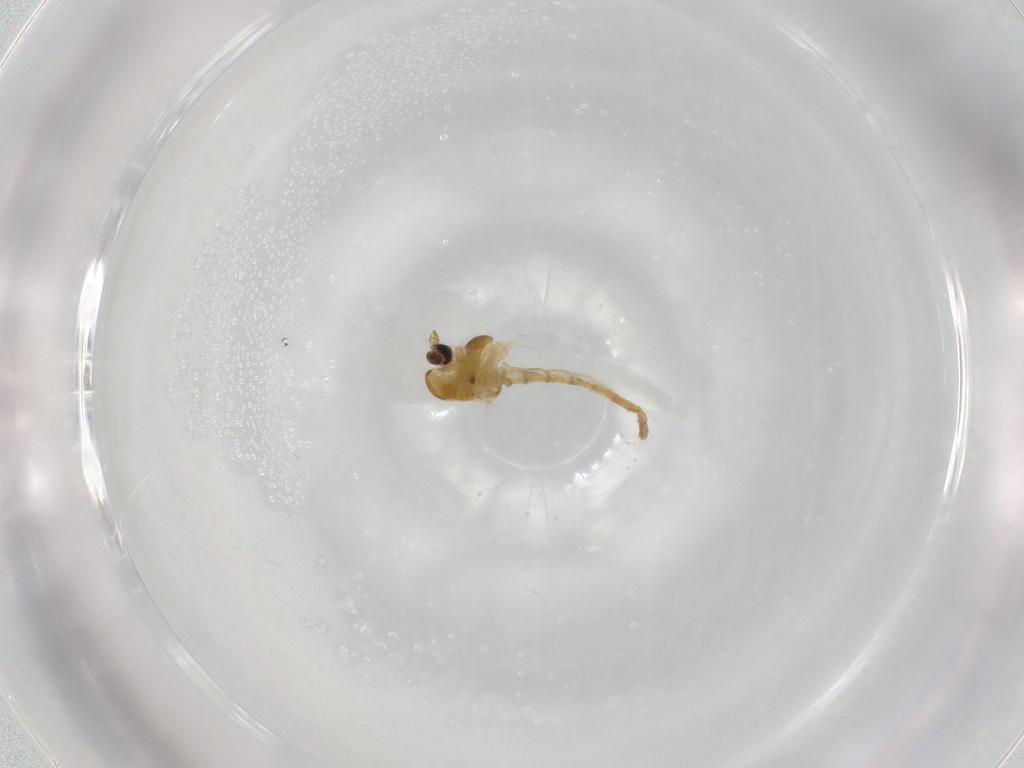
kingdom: Animalia
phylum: Arthropoda
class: Insecta
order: Diptera
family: Chironomidae
